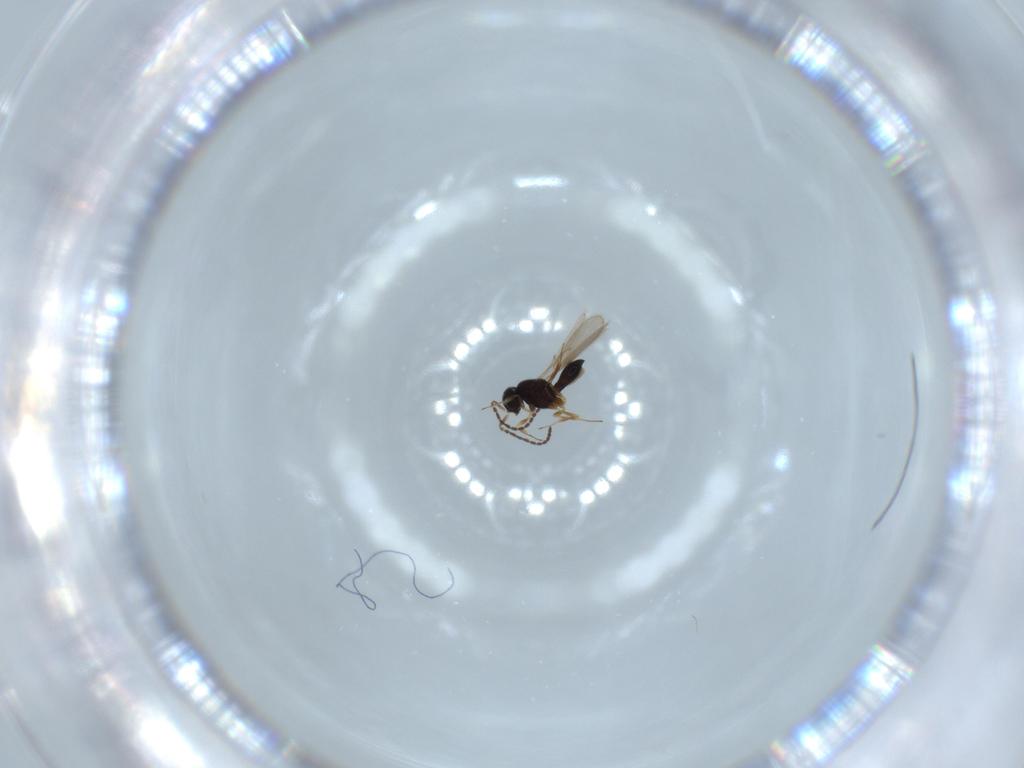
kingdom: Animalia
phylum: Arthropoda
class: Insecta
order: Hymenoptera
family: Scelionidae
